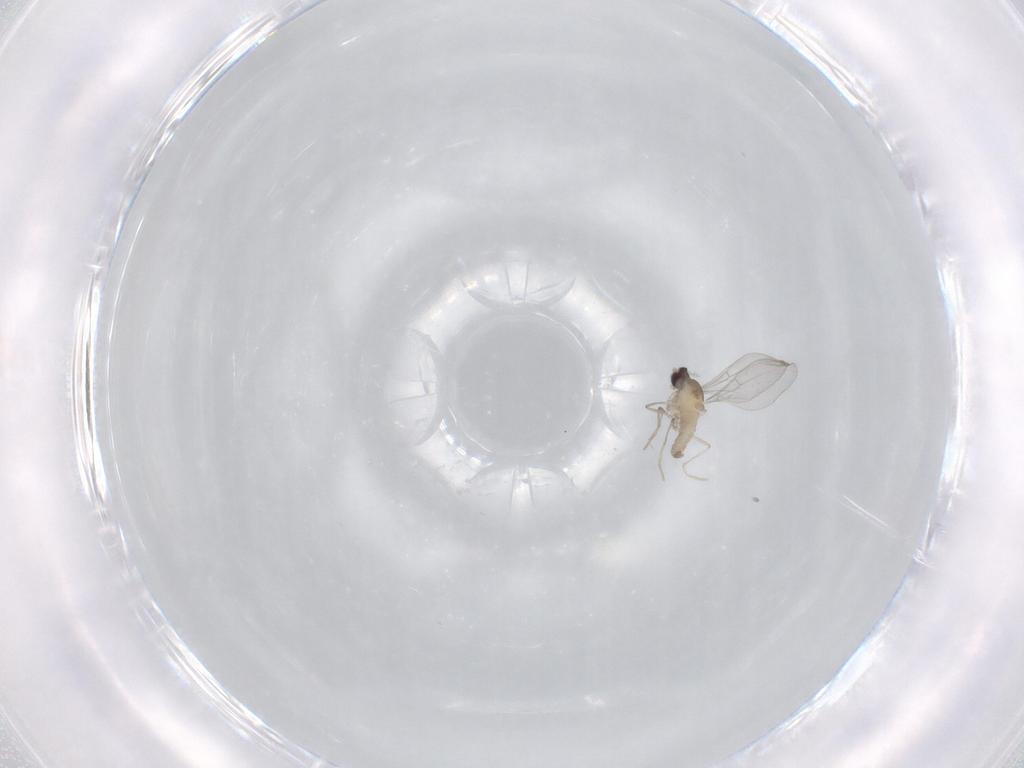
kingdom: Animalia
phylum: Arthropoda
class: Insecta
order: Diptera
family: Cecidomyiidae
